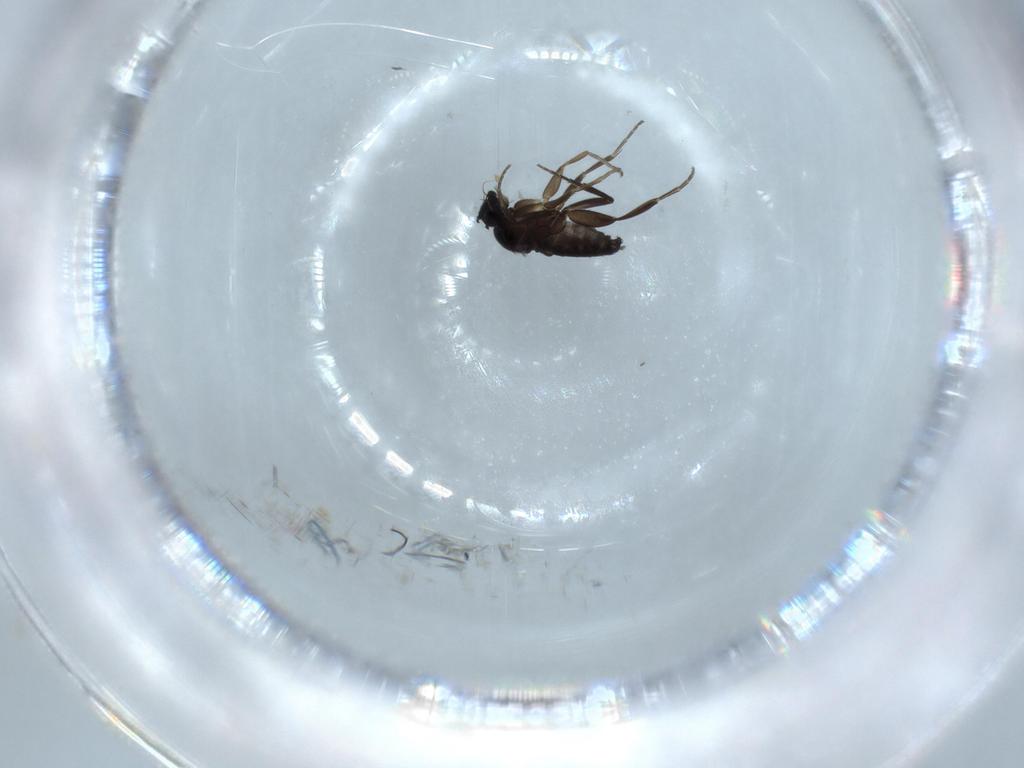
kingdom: Animalia
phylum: Arthropoda
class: Insecta
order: Diptera
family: Phoridae
